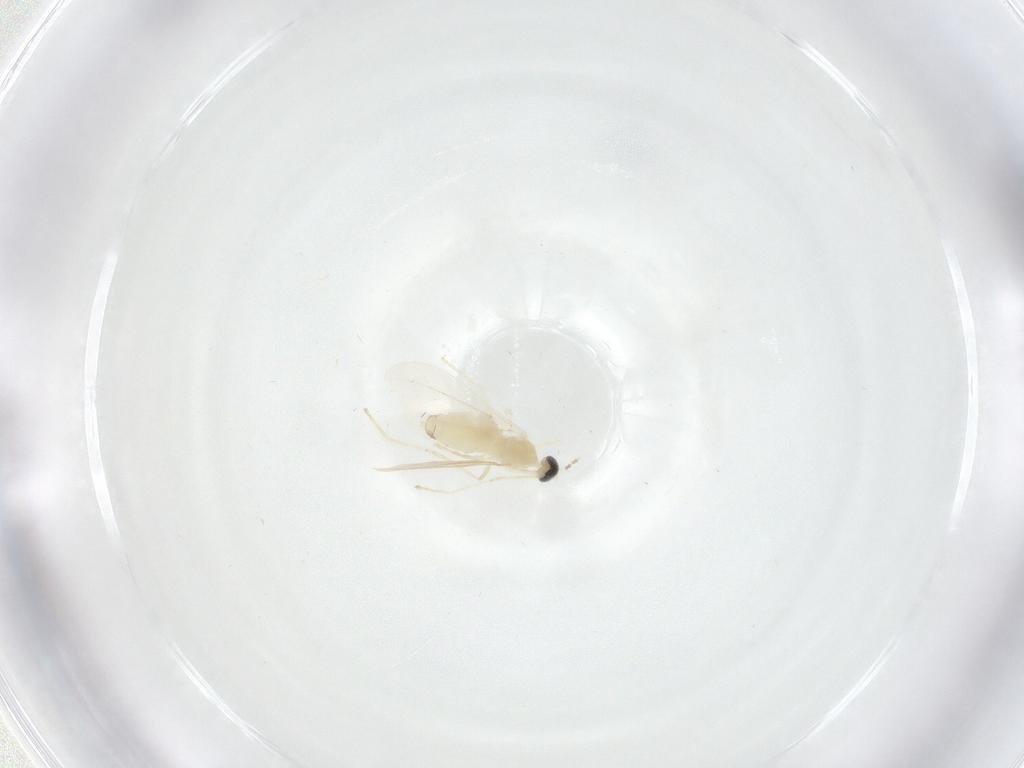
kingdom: Animalia
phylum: Arthropoda
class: Insecta
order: Diptera
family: Cecidomyiidae
